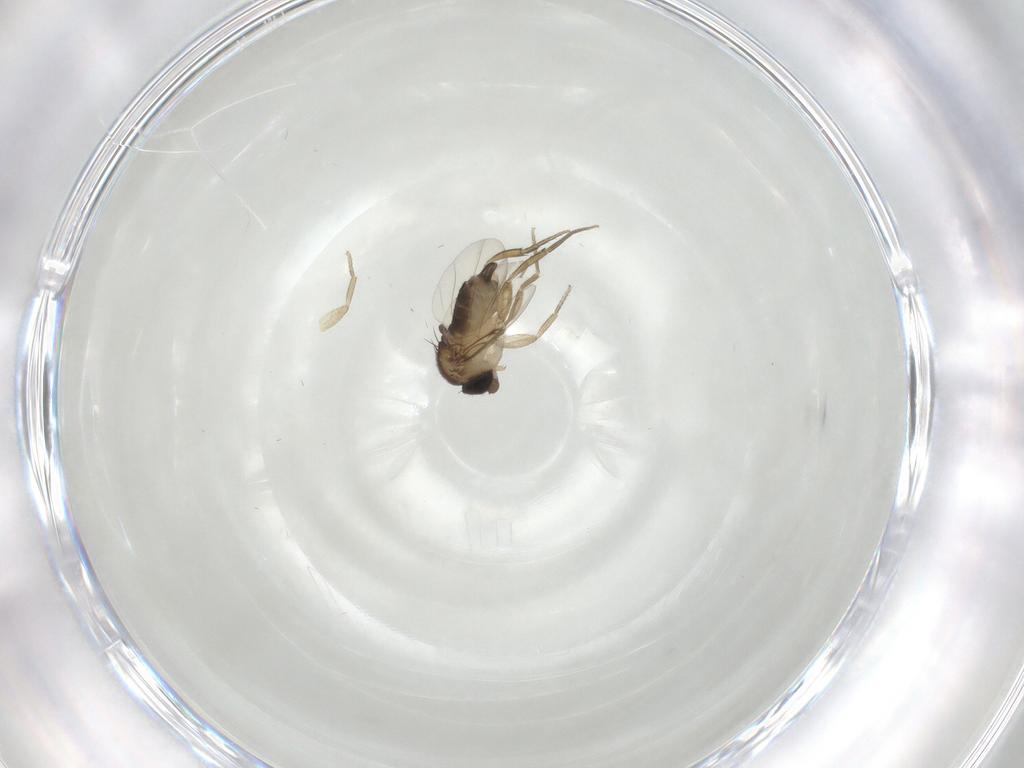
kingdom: Animalia
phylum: Arthropoda
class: Insecta
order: Diptera
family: Phoridae
